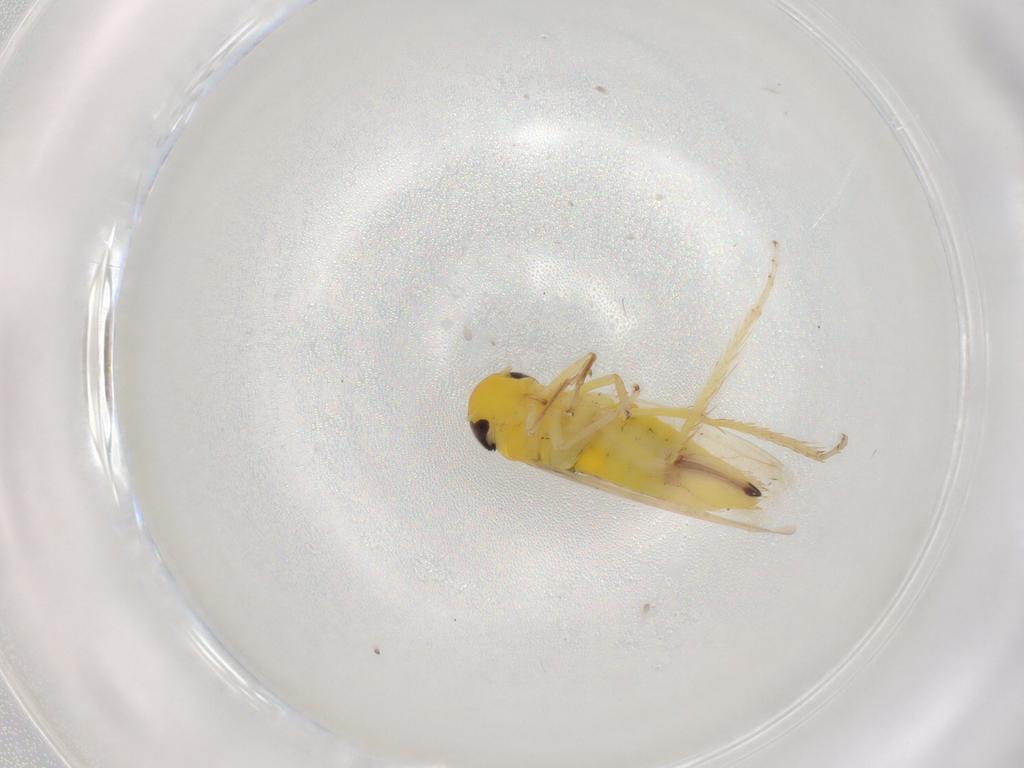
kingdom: Animalia
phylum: Arthropoda
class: Insecta
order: Hemiptera
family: Cicadellidae
